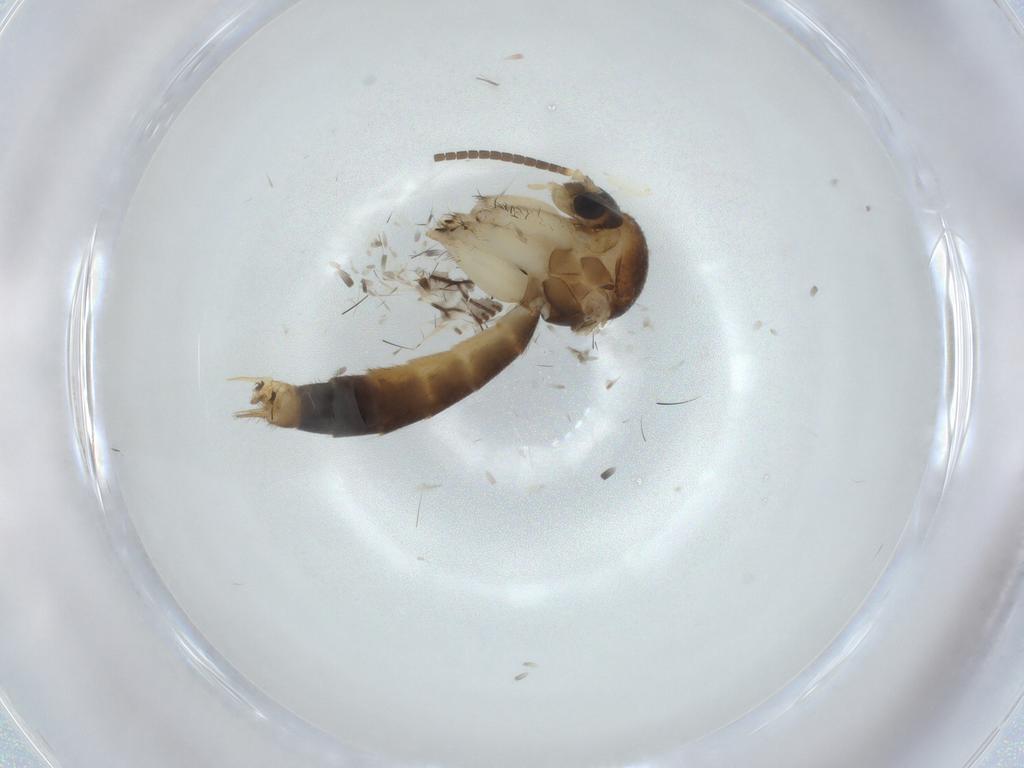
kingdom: Animalia
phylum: Arthropoda
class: Insecta
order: Diptera
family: Mycetophilidae
